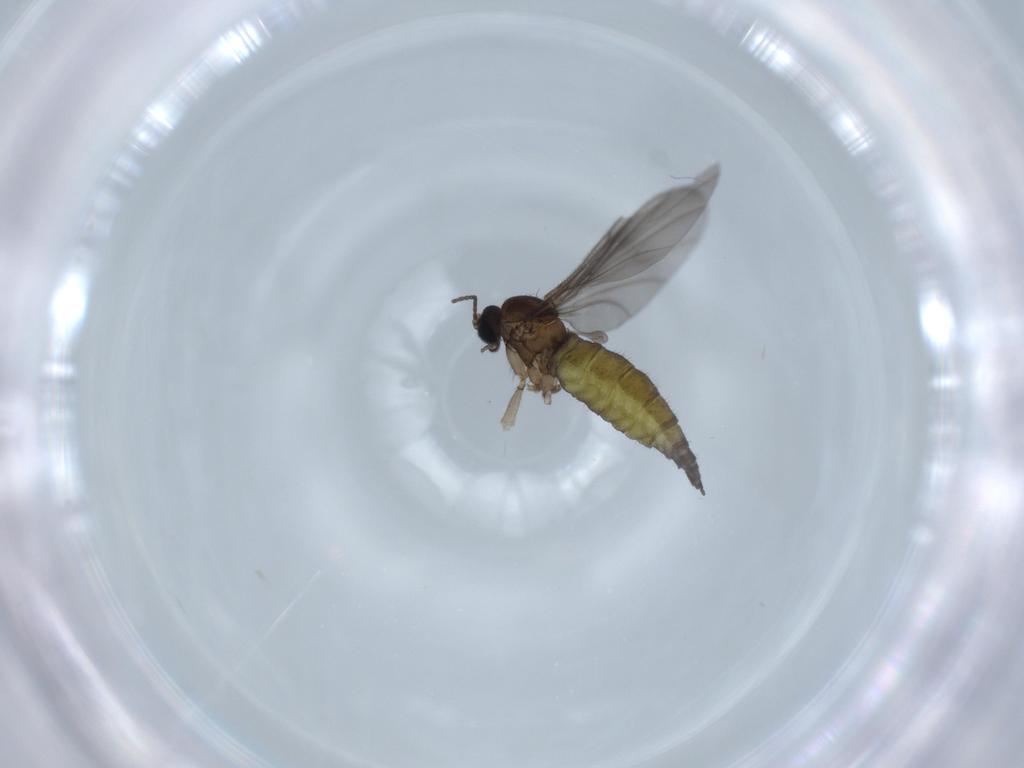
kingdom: Animalia
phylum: Arthropoda
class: Insecta
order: Diptera
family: Sciaridae
